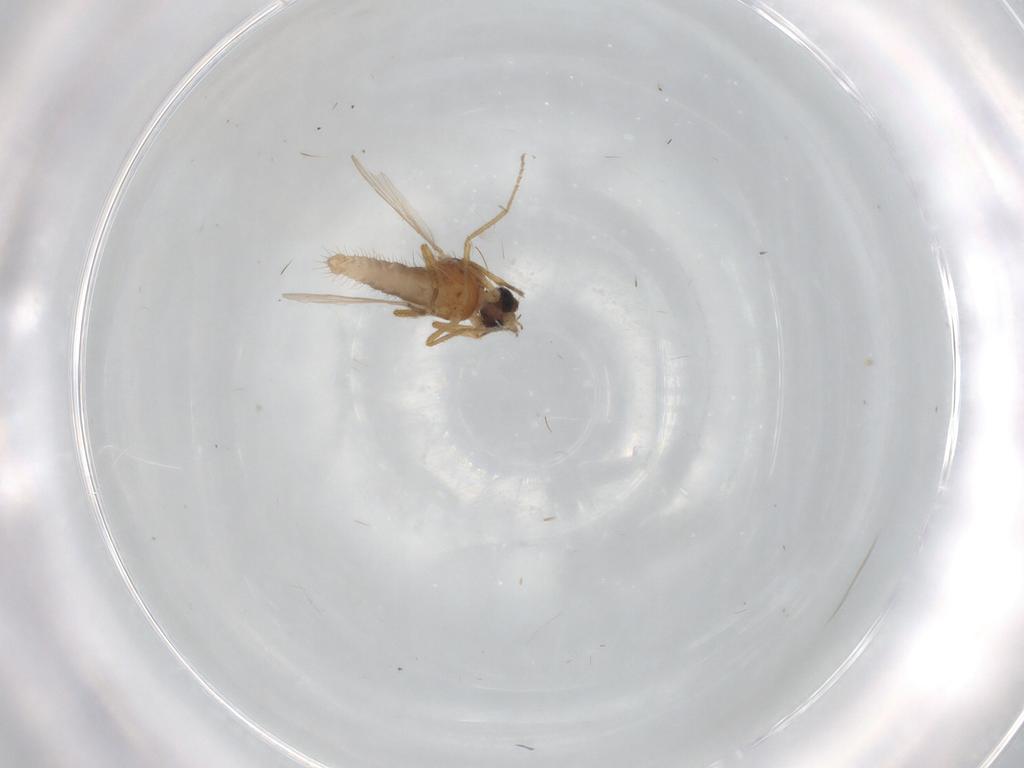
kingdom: Animalia
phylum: Arthropoda
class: Insecta
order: Diptera
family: Ceratopogonidae
